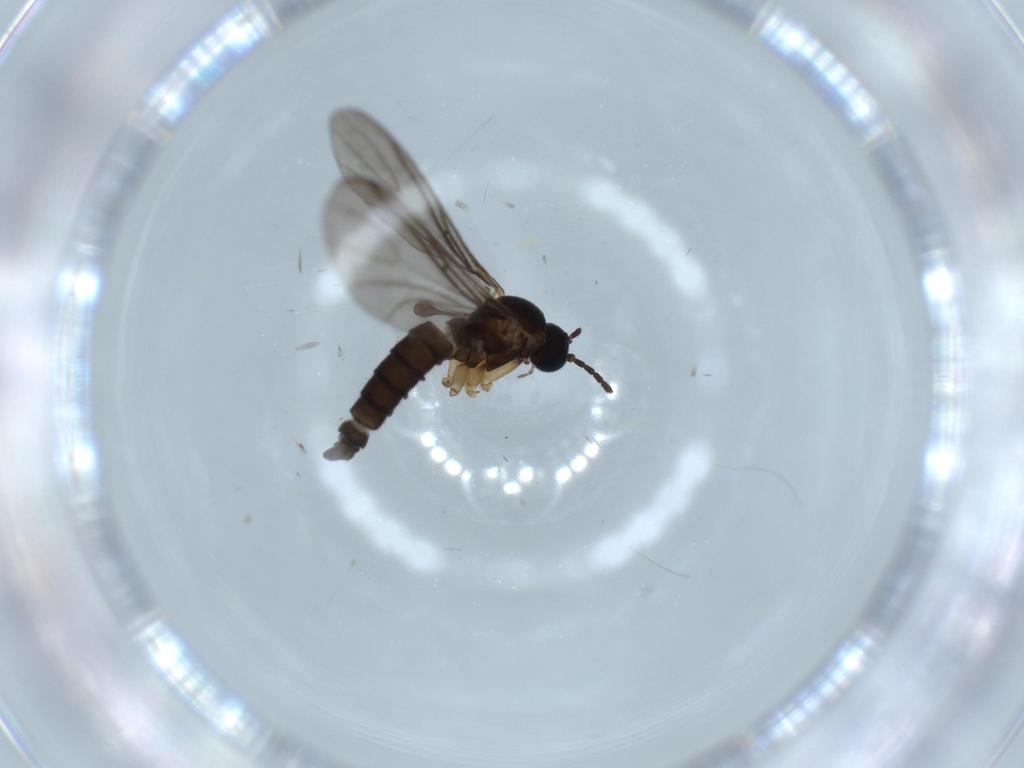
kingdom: Animalia
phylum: Arthropoda
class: Insecta
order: Diptera
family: Sciaridae
